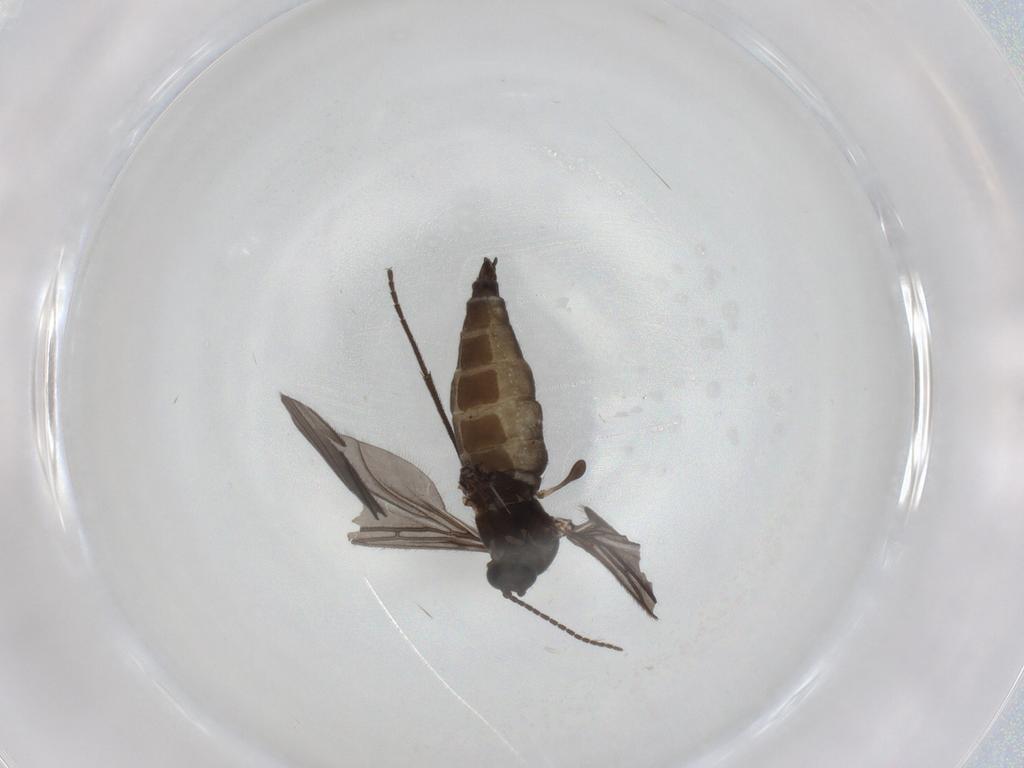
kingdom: Animalia
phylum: Arthropoda
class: Insecta
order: Diptera
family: Sciaridae
